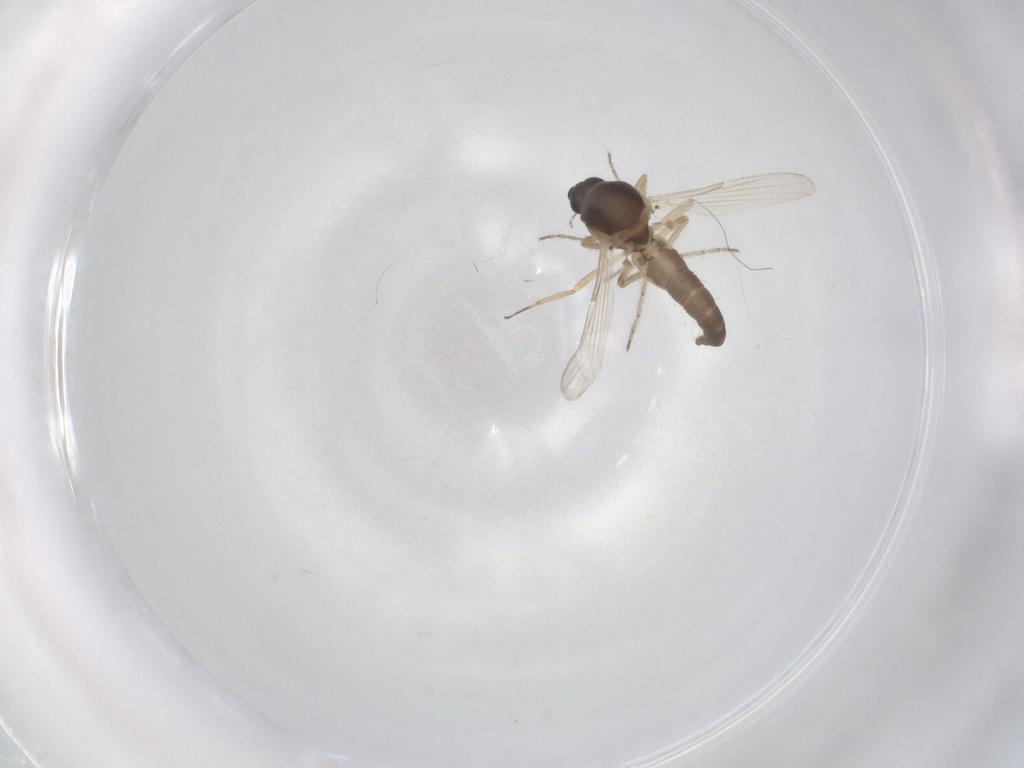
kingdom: Animalia
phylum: Arthropoda
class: Insecta
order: Diptera
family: Ceratopogonidae
